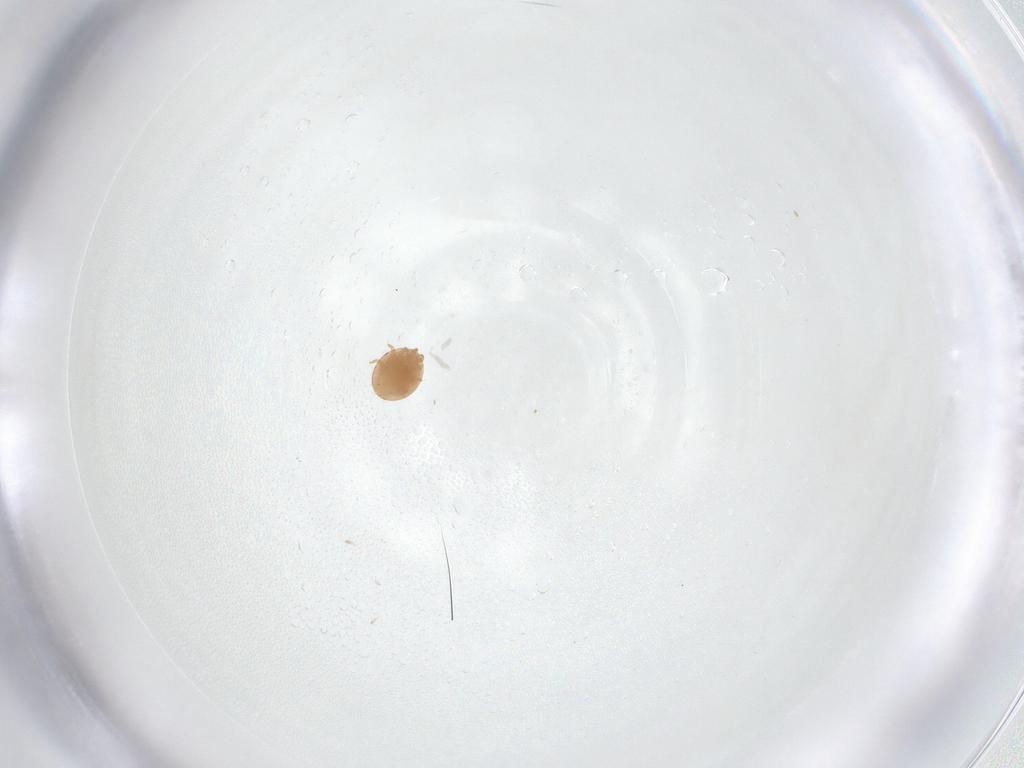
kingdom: Animalia
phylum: Arthropoda
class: Arachnida
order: Mesostigmata
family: Trematuridae
